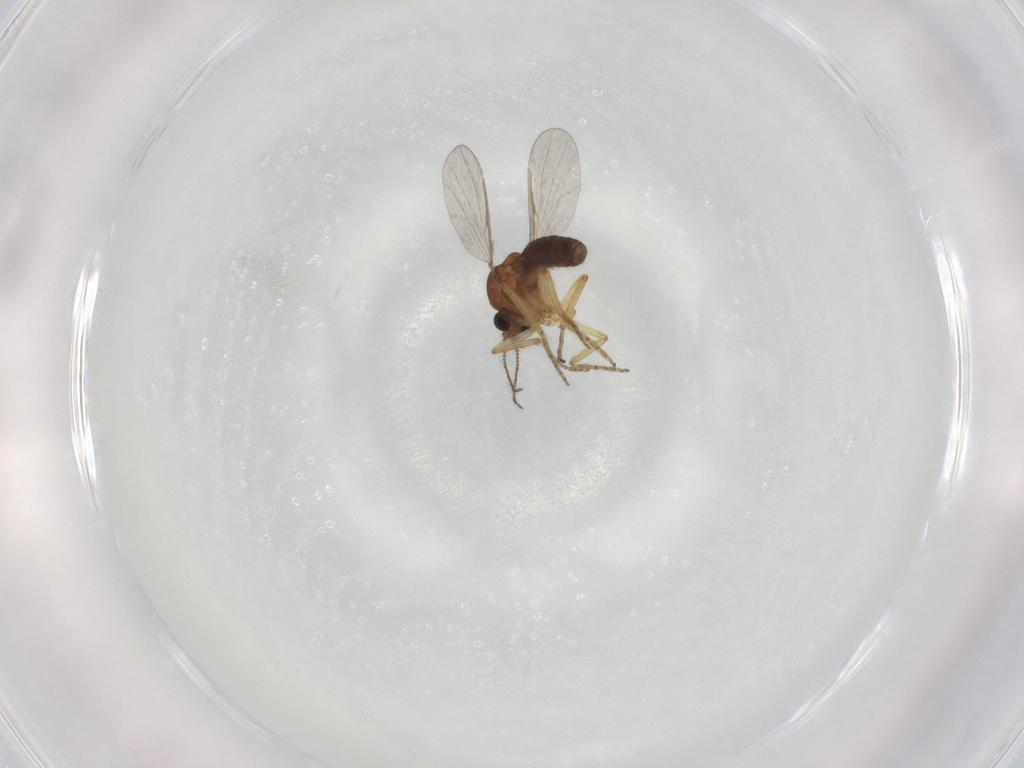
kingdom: Animalia
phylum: Arthropoda
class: Insecta
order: Diptera
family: Ceratopogonidae
